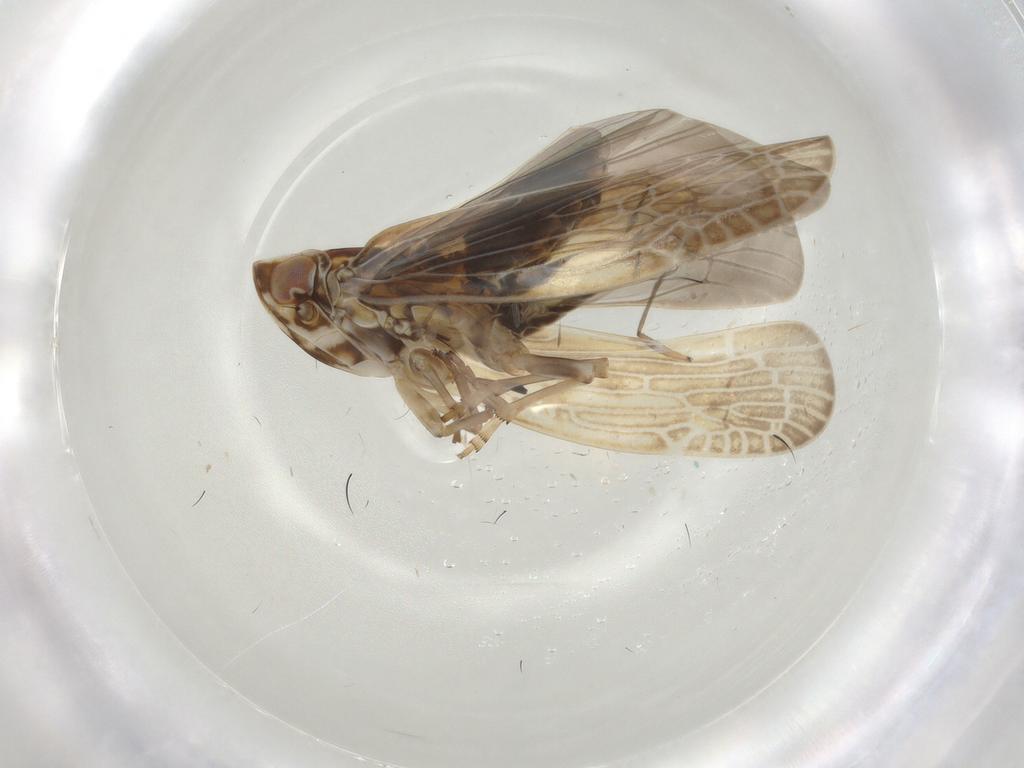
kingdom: Animalia
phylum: Arthropoda
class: Insecta
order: Hemiptera
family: Achilidae
